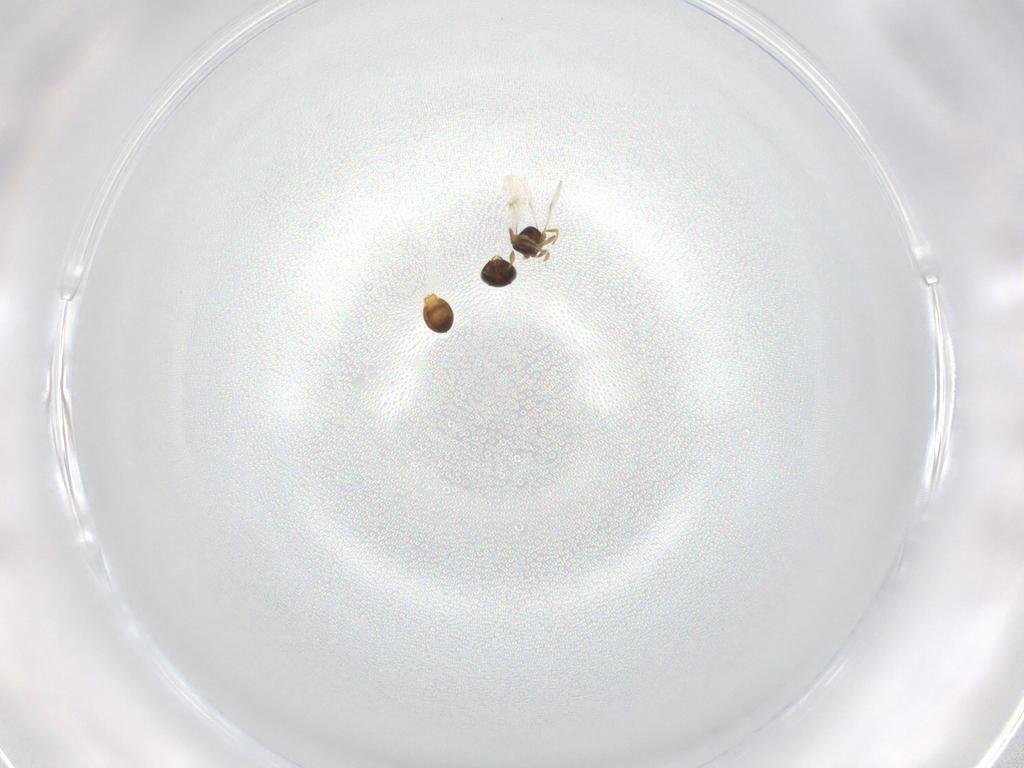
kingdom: Animalia
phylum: Arthropoda
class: Insecta
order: Hymenoptera
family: Scelionidae
